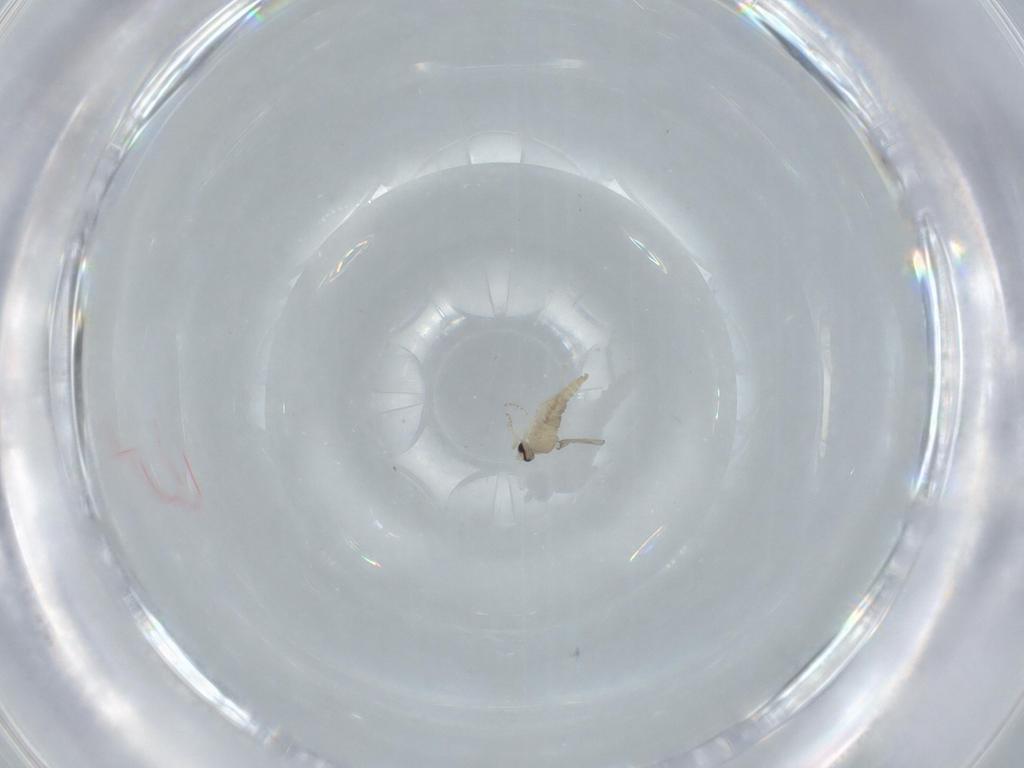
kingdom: Animalia
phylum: Arthropoda
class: Insecta
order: Diptera
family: Cecidomyiidae
